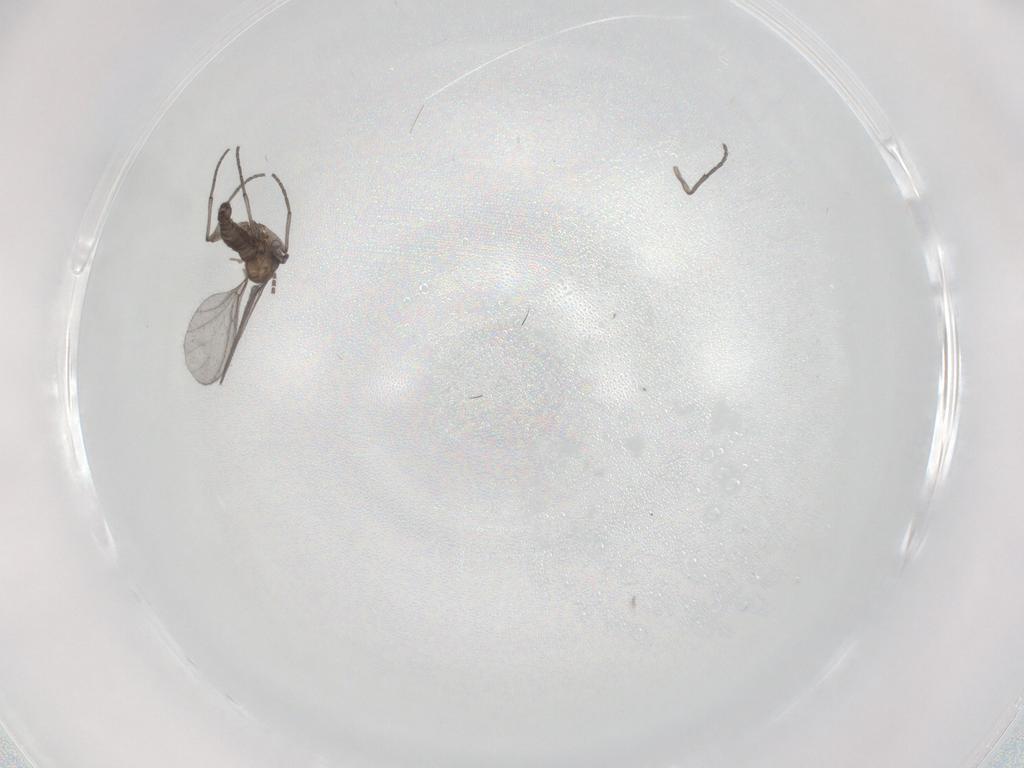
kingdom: Animalia
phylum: Arthropoda
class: Insecta
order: Diptera
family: Sciaridae
